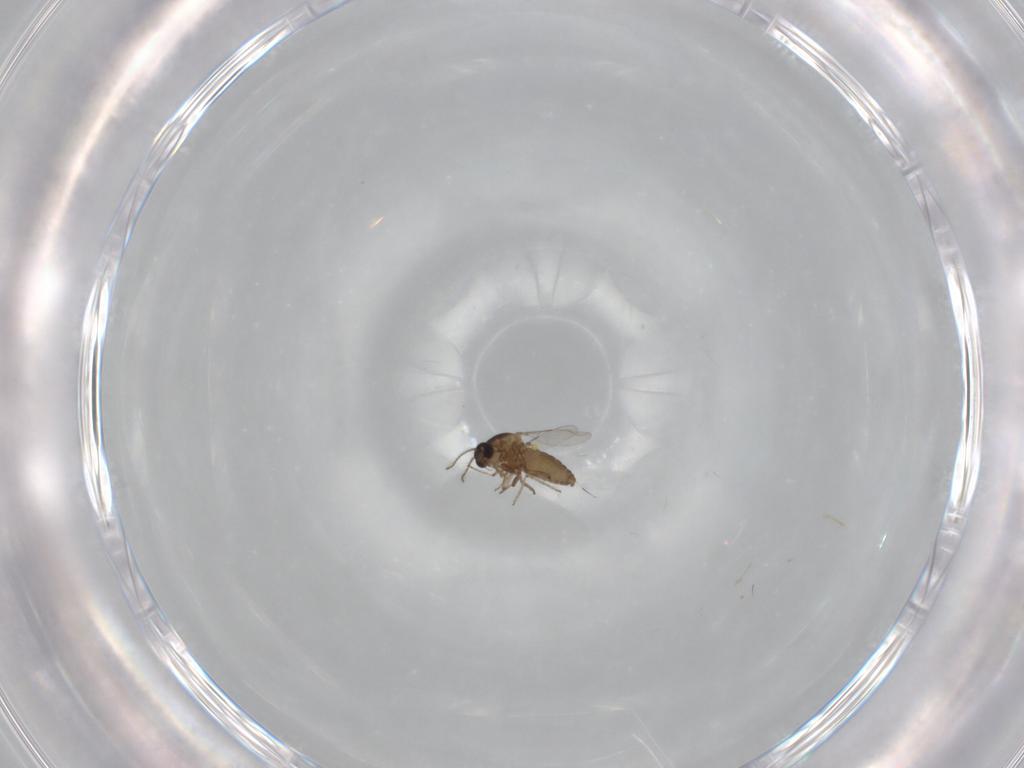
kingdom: Animalia
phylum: Arthropoda
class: Insecta
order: Diptera
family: Ceratopogonidae
